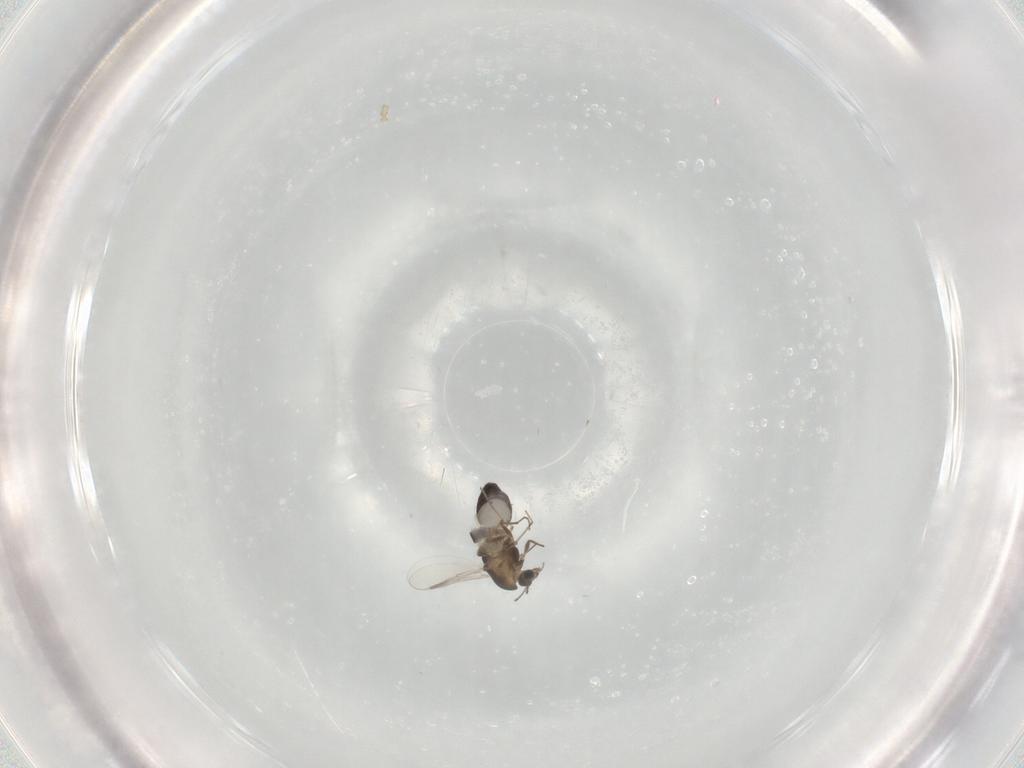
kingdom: Animalia
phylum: Arthropoda
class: Insecta
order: Diptera
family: Chironomidae
